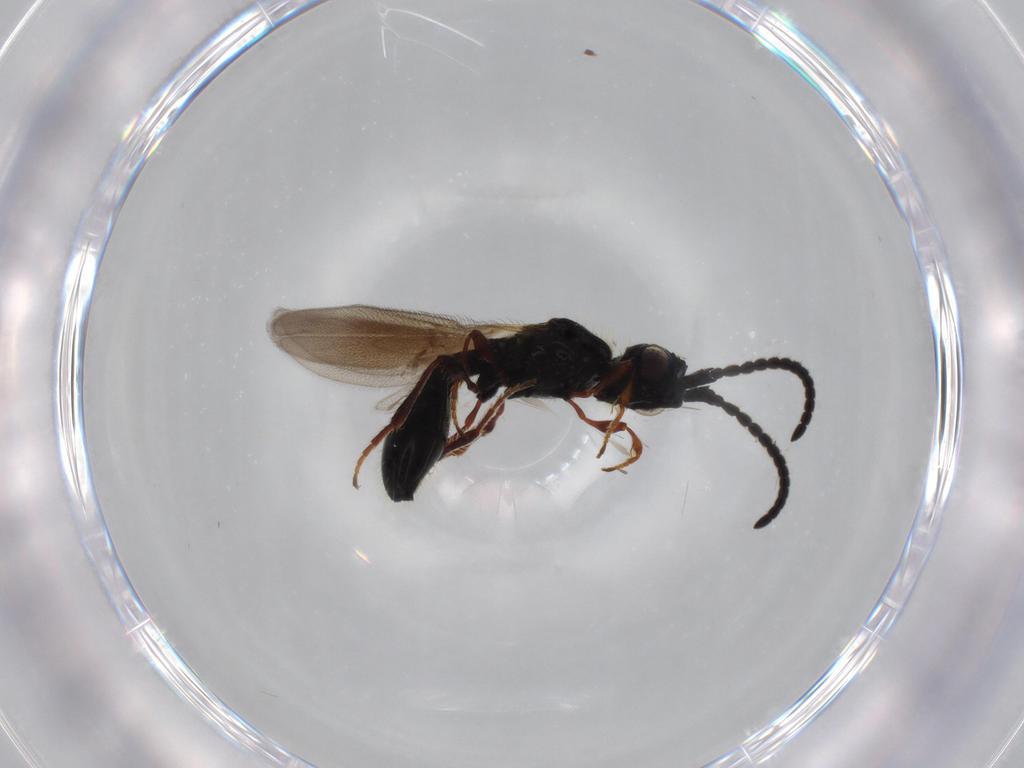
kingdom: Animalia
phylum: Arthropoda
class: Insecta
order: Hymenoptera
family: Diapriidae
